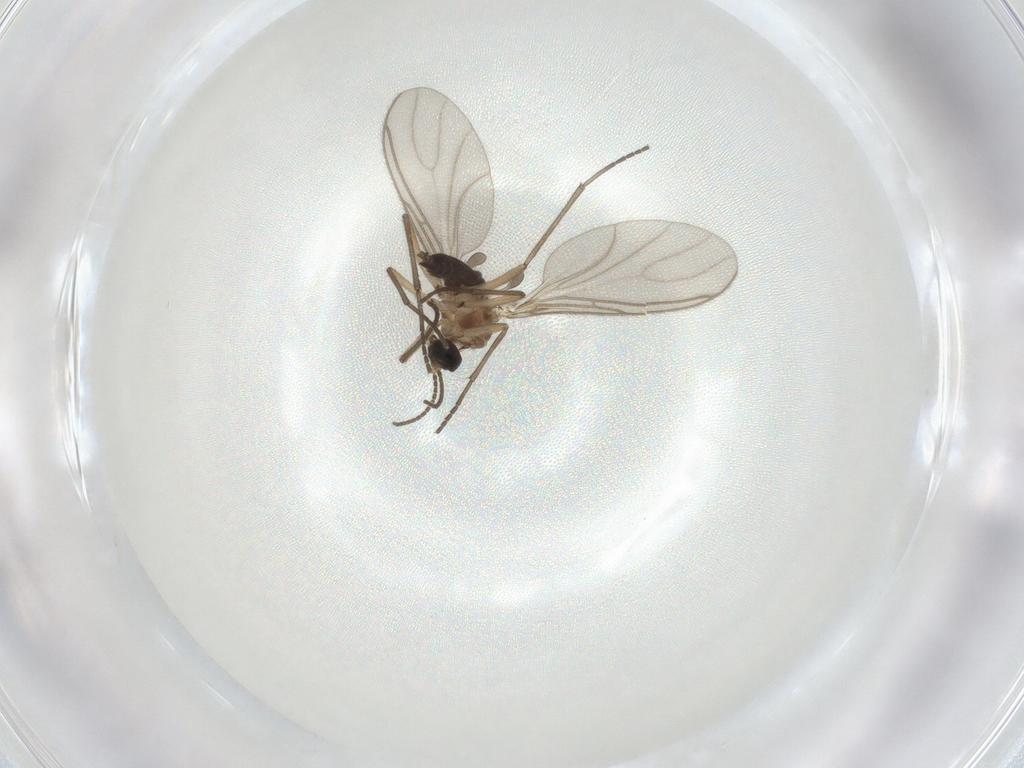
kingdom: Animalia
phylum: Arthropoda
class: Insecta
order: Diptera
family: Sciaridae
